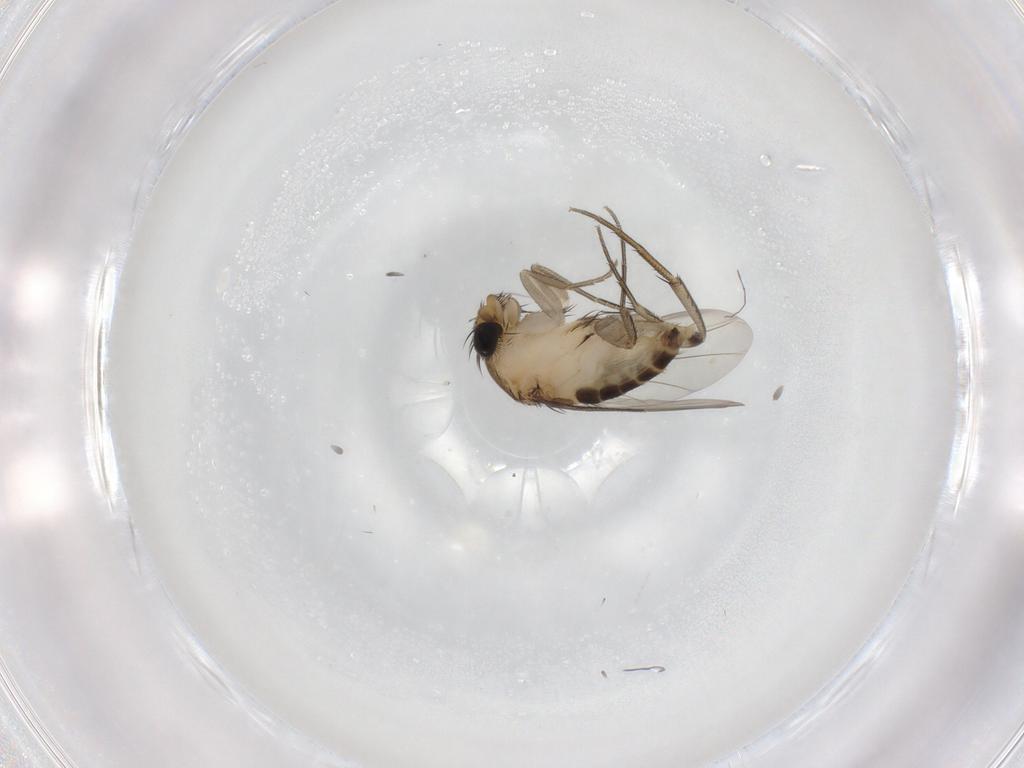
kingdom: Animalia
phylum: Arthropoda
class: Insecta
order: Diptera
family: Phoridae
